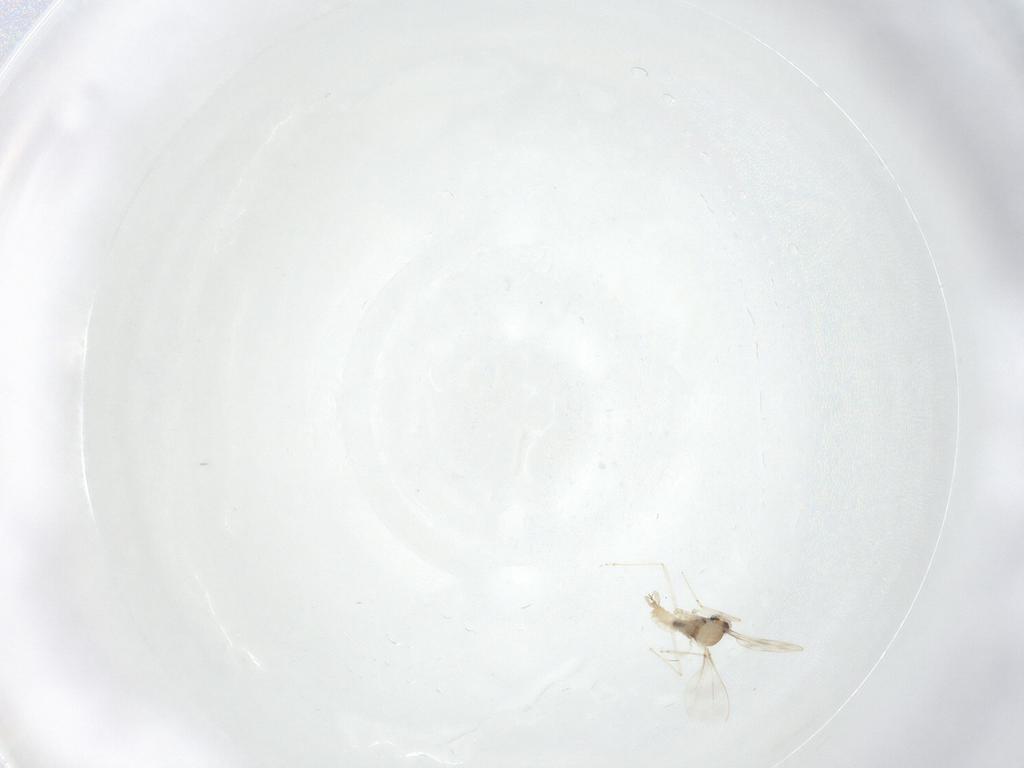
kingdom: Animalia
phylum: Arthropoda
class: Insecta
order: Diptera
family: Cecidomyiidae
